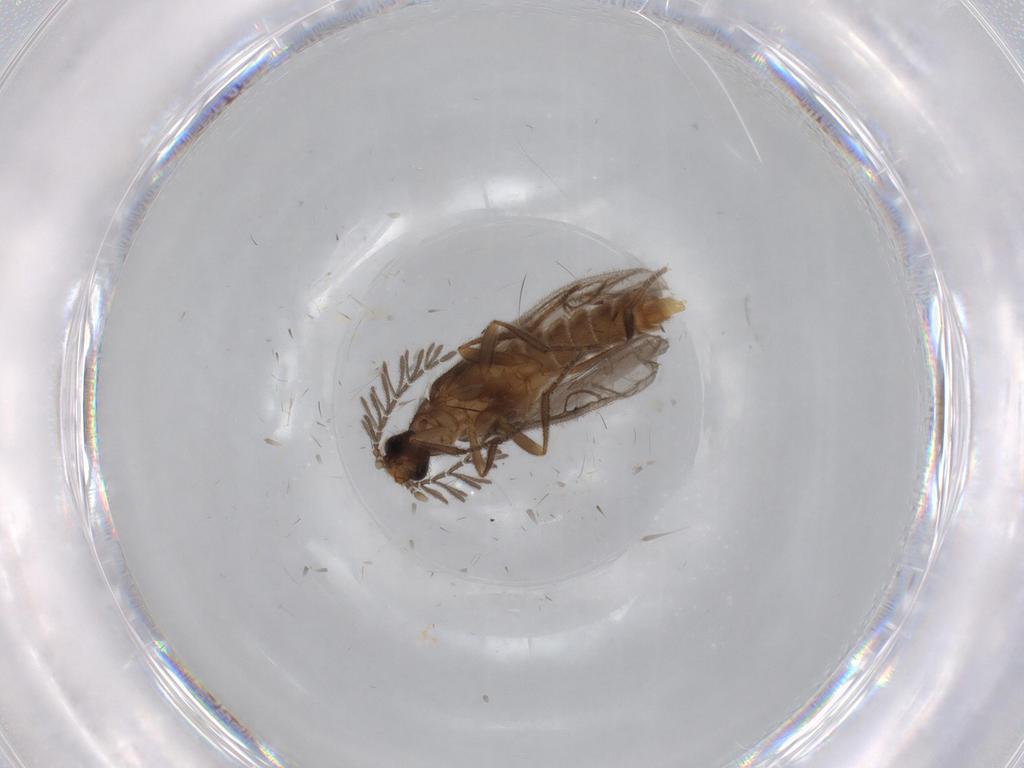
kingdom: Animalia
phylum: Arthropoda
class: Insecta
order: Coleoptera
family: Chrysomelidae
